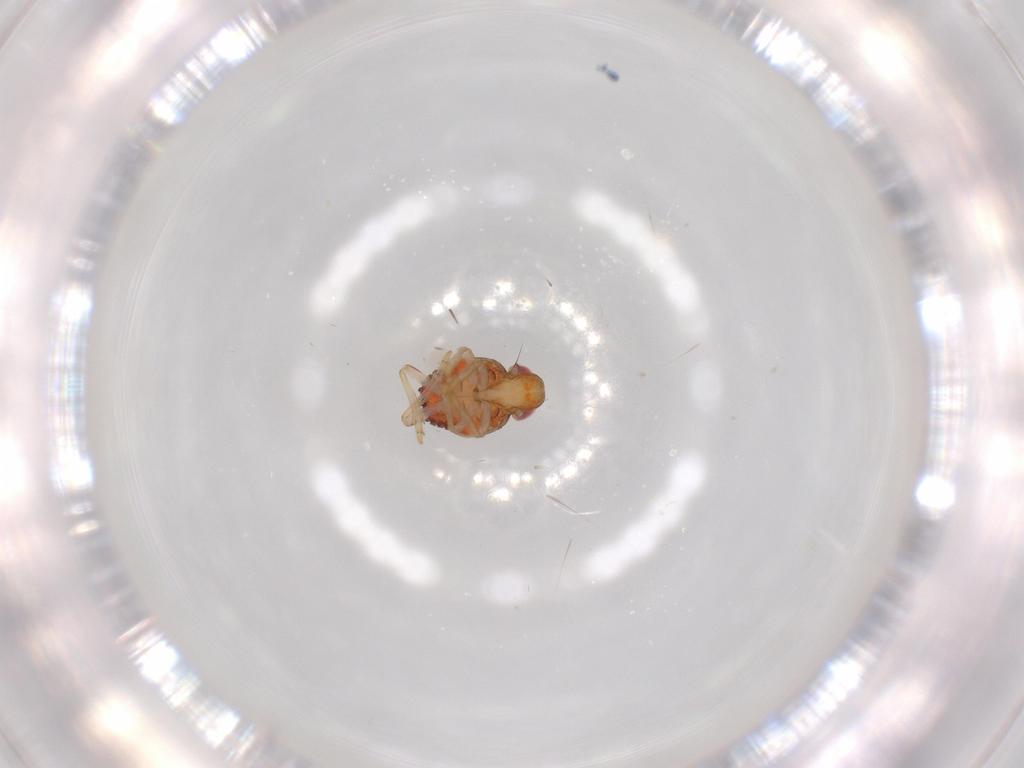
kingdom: Animalia
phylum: Arthropoda
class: Insecta
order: Hemiptera
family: Issidae
